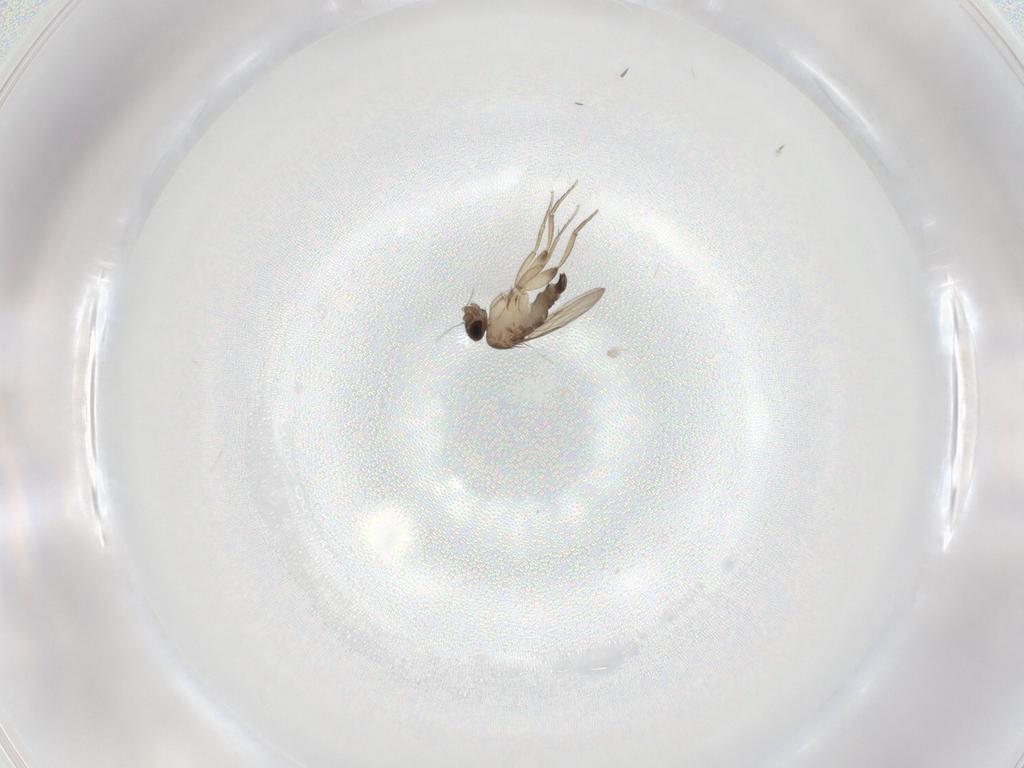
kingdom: Animalia
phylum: Arthropoda
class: Insecta
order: Diptera
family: Phoridae
